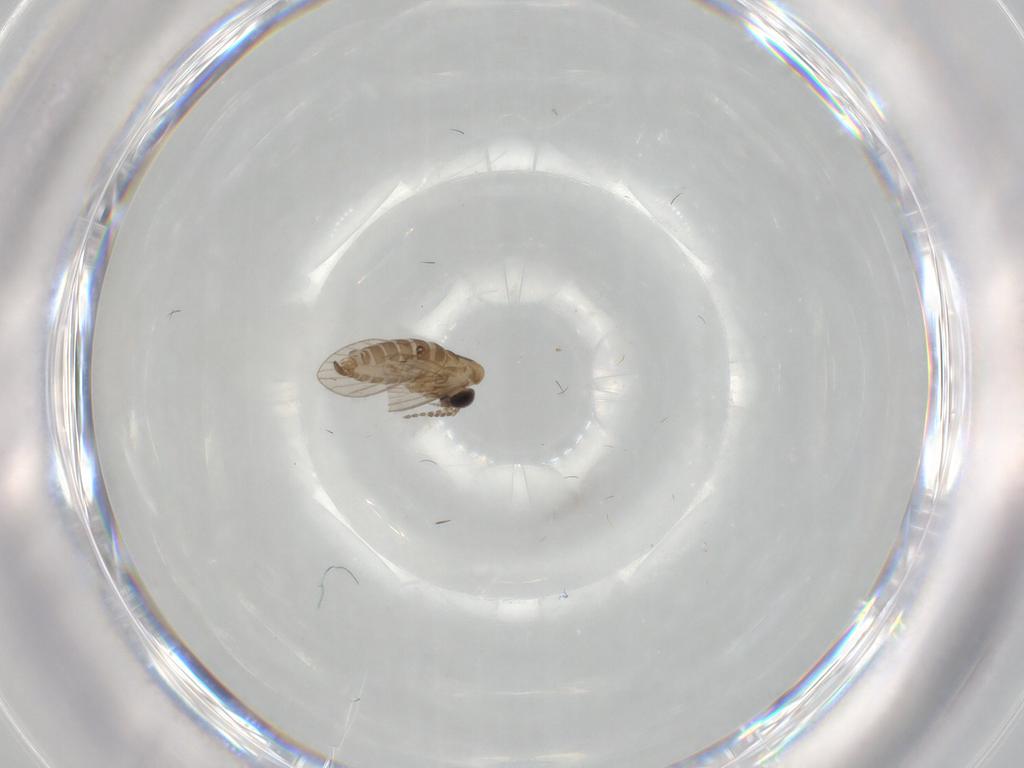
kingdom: Animalia
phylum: Arthropoda
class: Insecta
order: Diptera
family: Psychodidae
